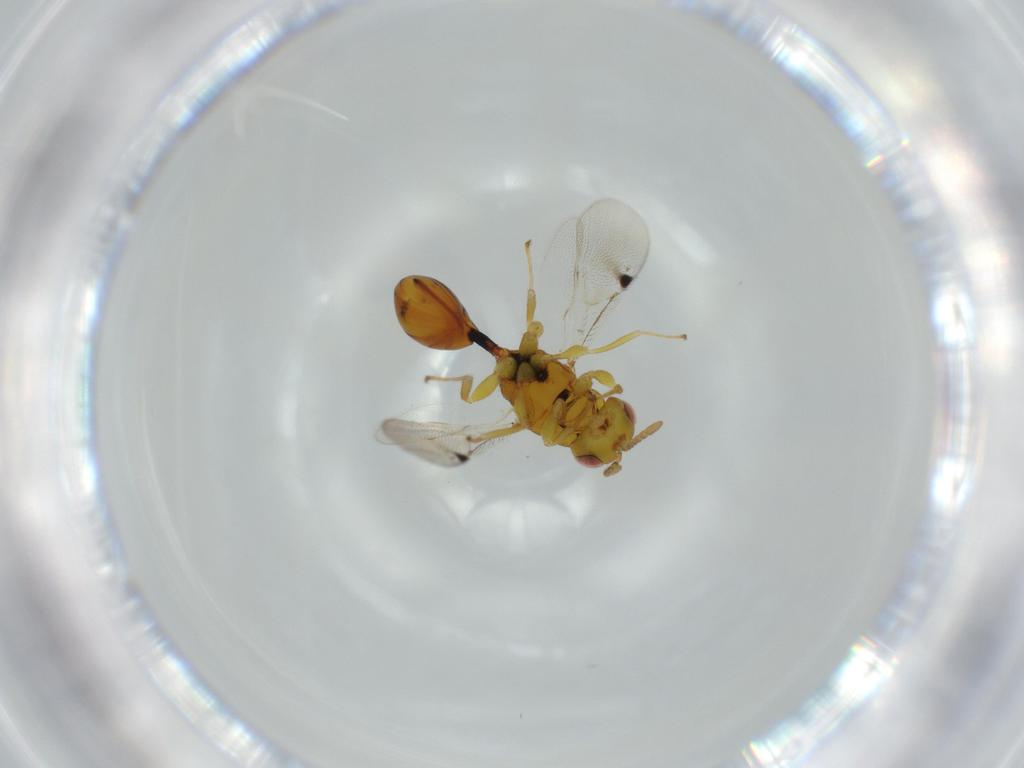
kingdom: Animalia
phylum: Arthropoda
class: Insecta
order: Hymenoptera
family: Eurytomidae
